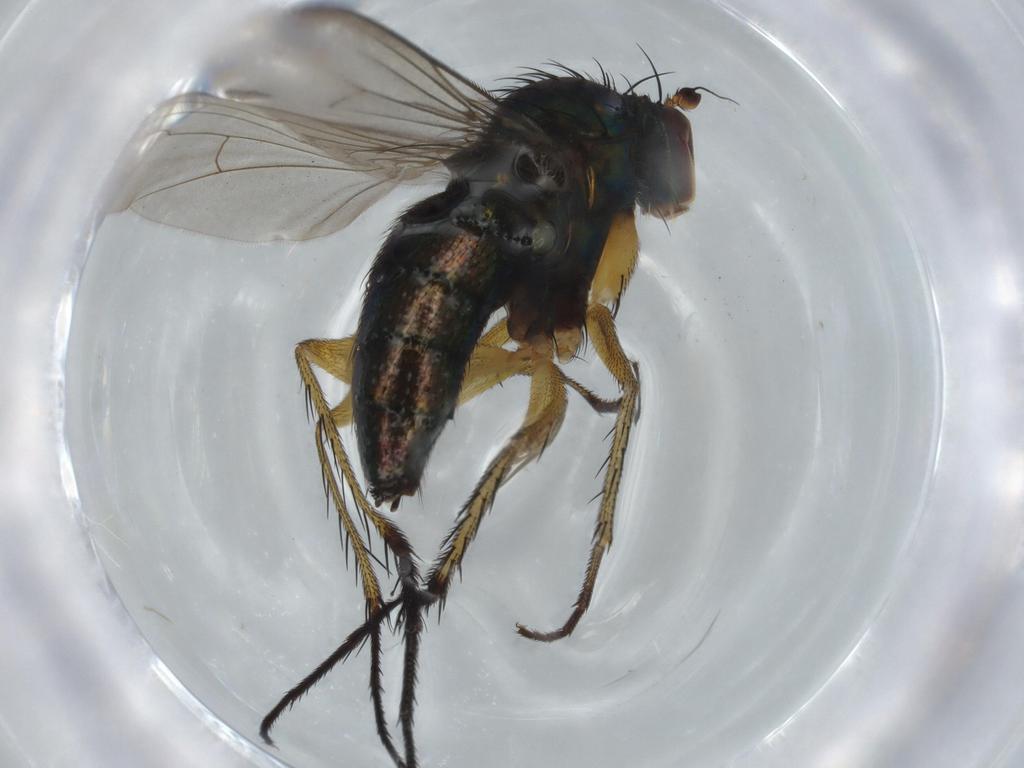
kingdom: Animalia
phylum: Arthropoda
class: Insecta
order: Diptera
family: Dolichopodidae
